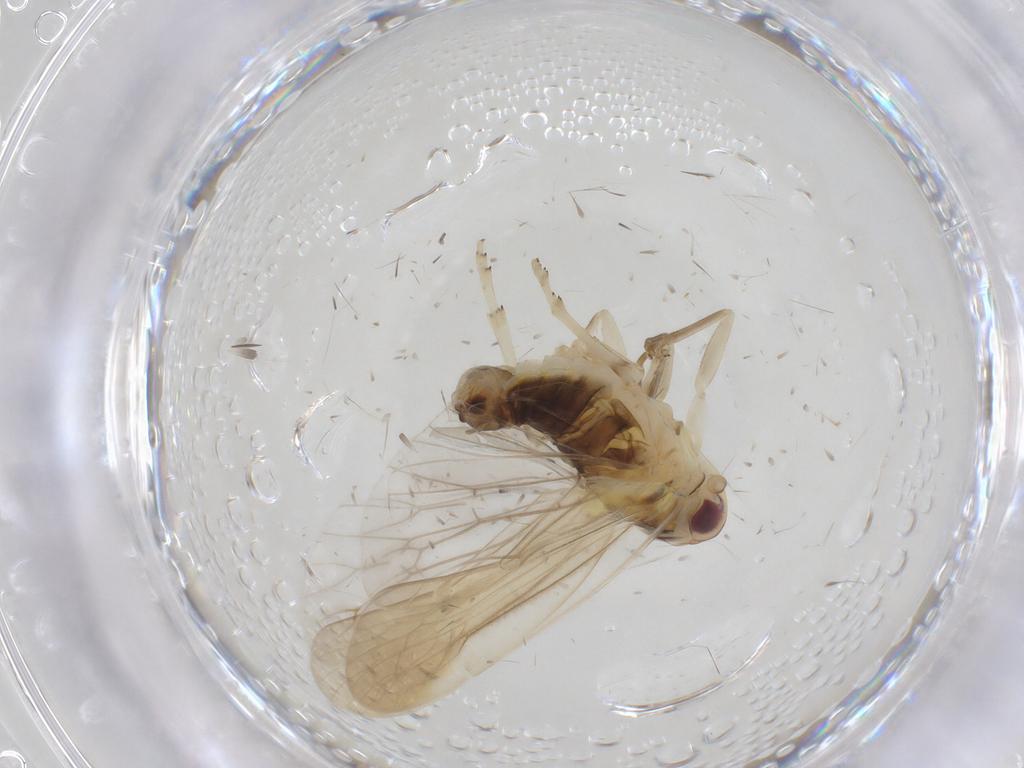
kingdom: Animalia
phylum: Arthropoda
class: Insecta
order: Hemiptera
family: Achilidae
